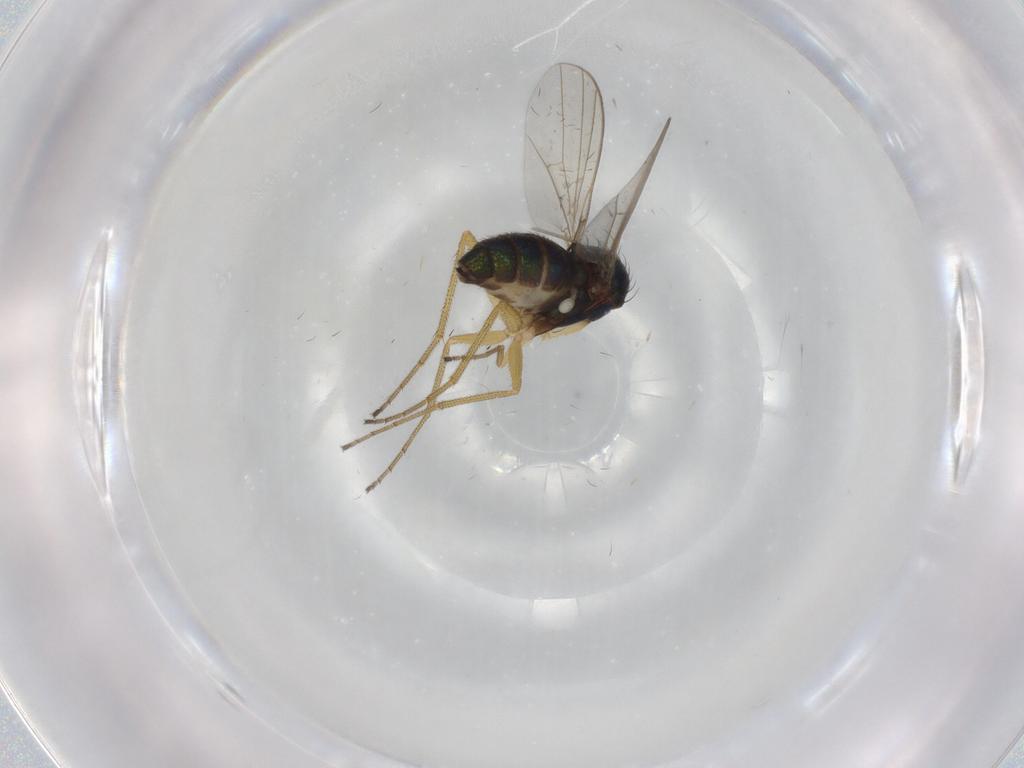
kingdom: Animalia
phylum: Arthropoda
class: Insecta
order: Diptera
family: Dolichopodidae
